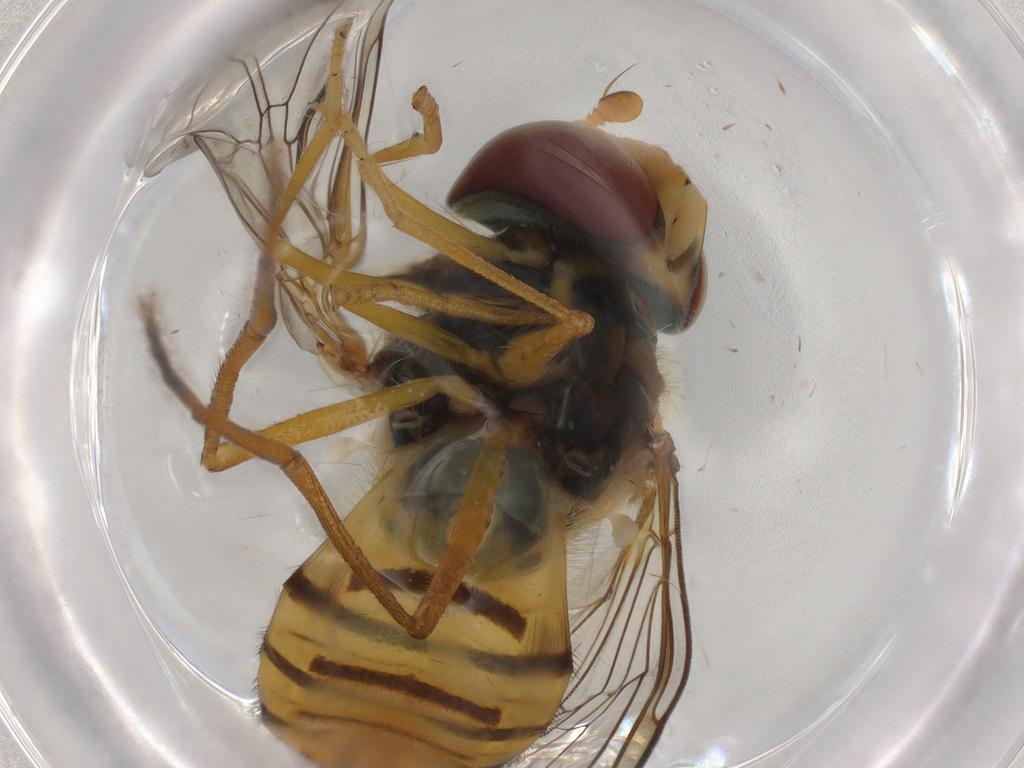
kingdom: Animalia
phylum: Arthropoda
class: Insecta
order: Diptera
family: Syrphidae
